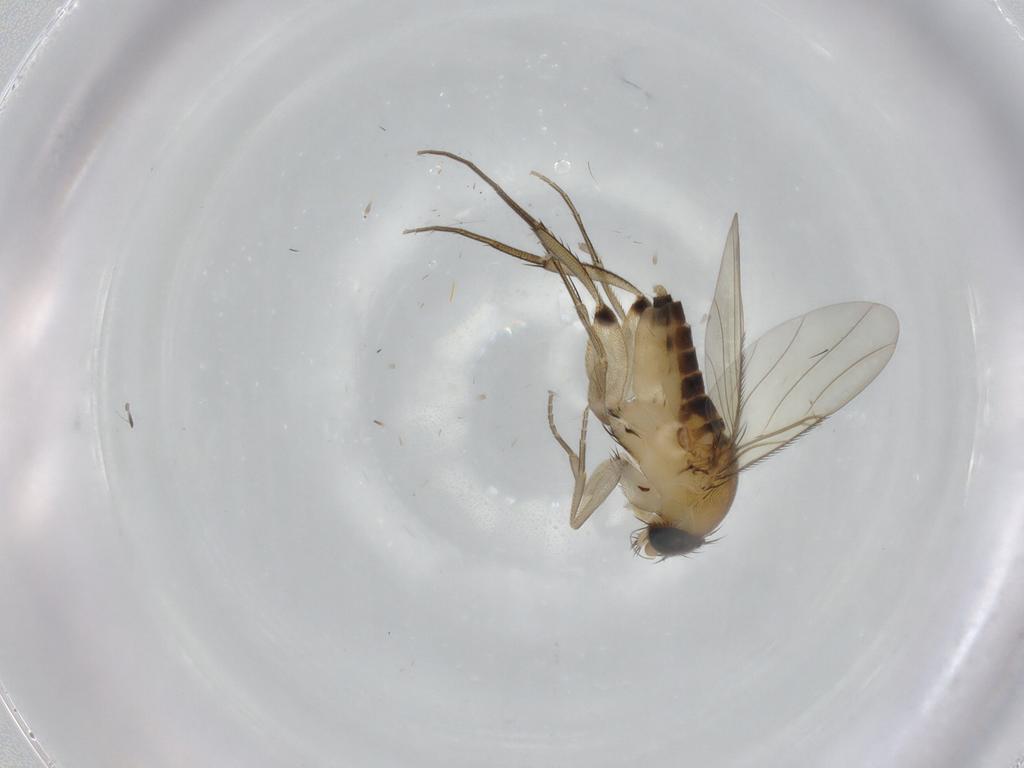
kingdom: Animalia
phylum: Arthropoda
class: Insecta
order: Diptera
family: Phoridae
